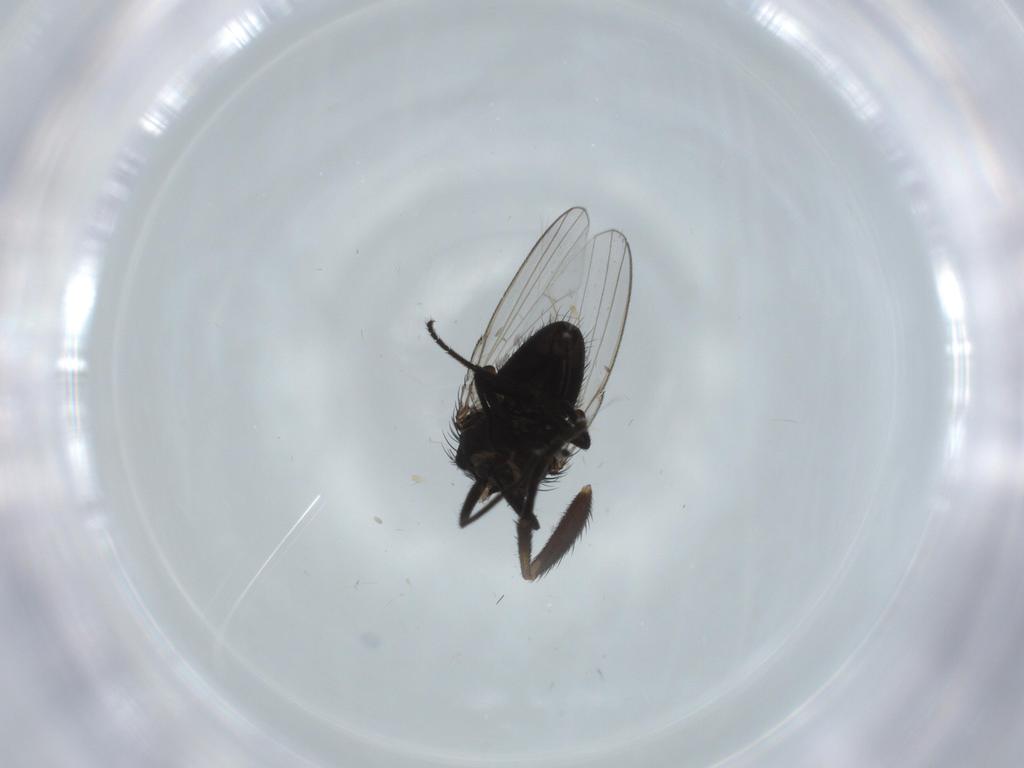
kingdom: Animalia
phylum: Arthropoda
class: Insecta
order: Diptera
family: Milichiidae
